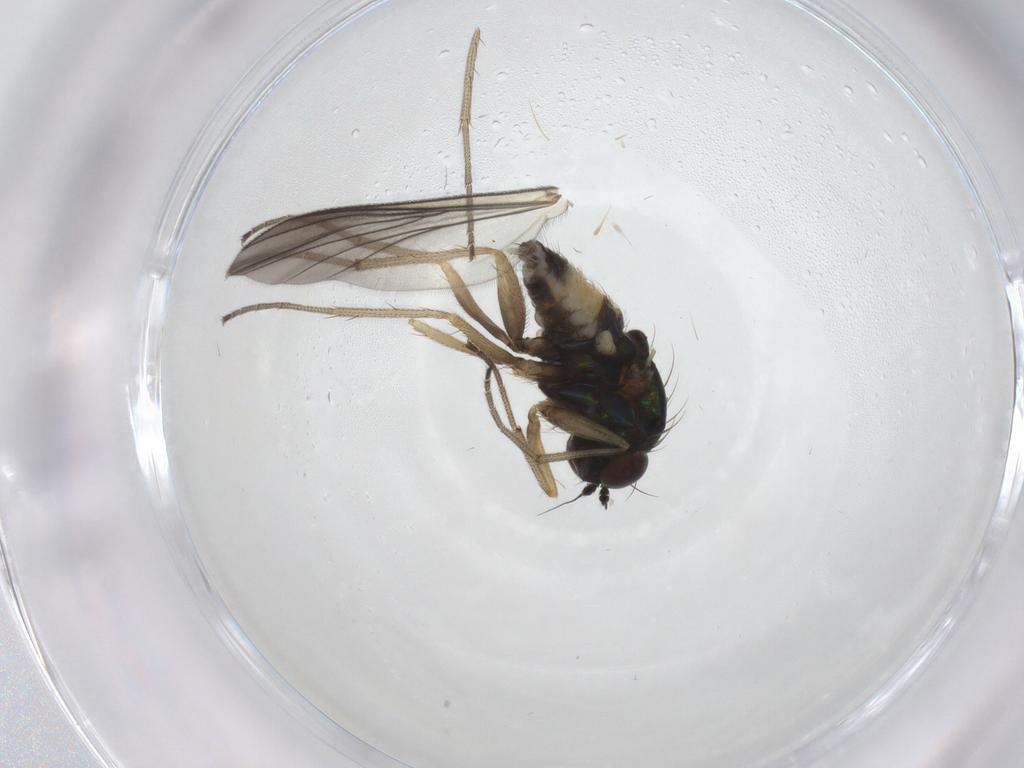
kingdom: Animalia
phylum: Arthropoda
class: Insecta
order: Diptera
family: Dolichopodidae
